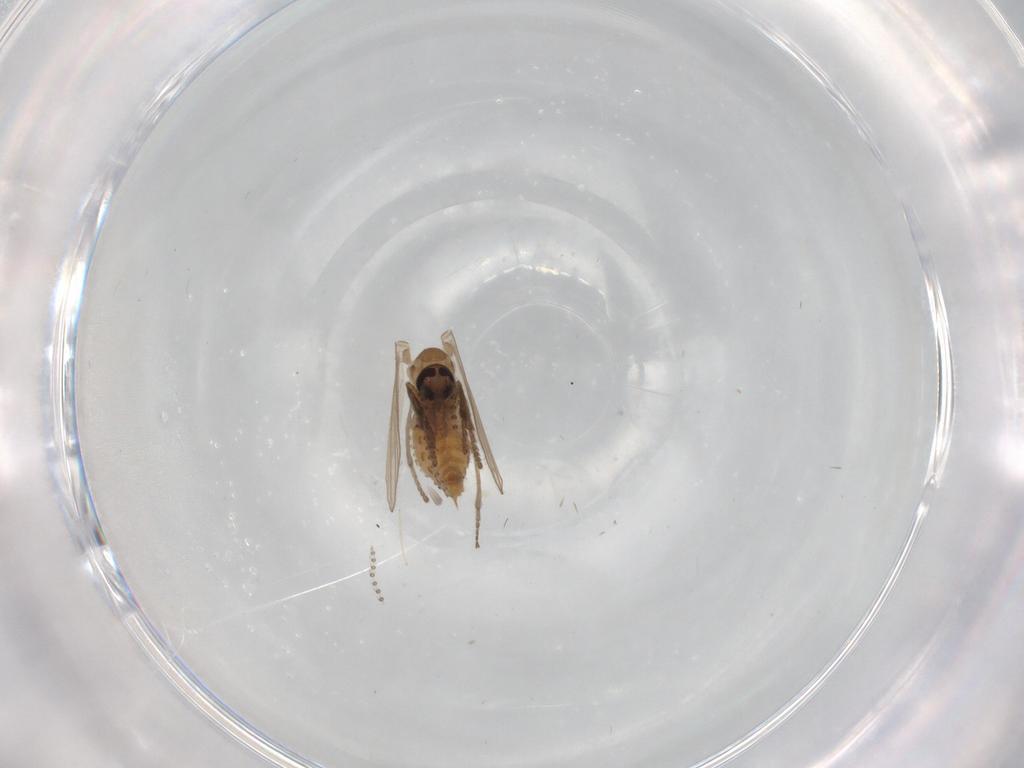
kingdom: Animalia
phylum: Arthropoda
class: Insecta
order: Diptera
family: Psychodidae
